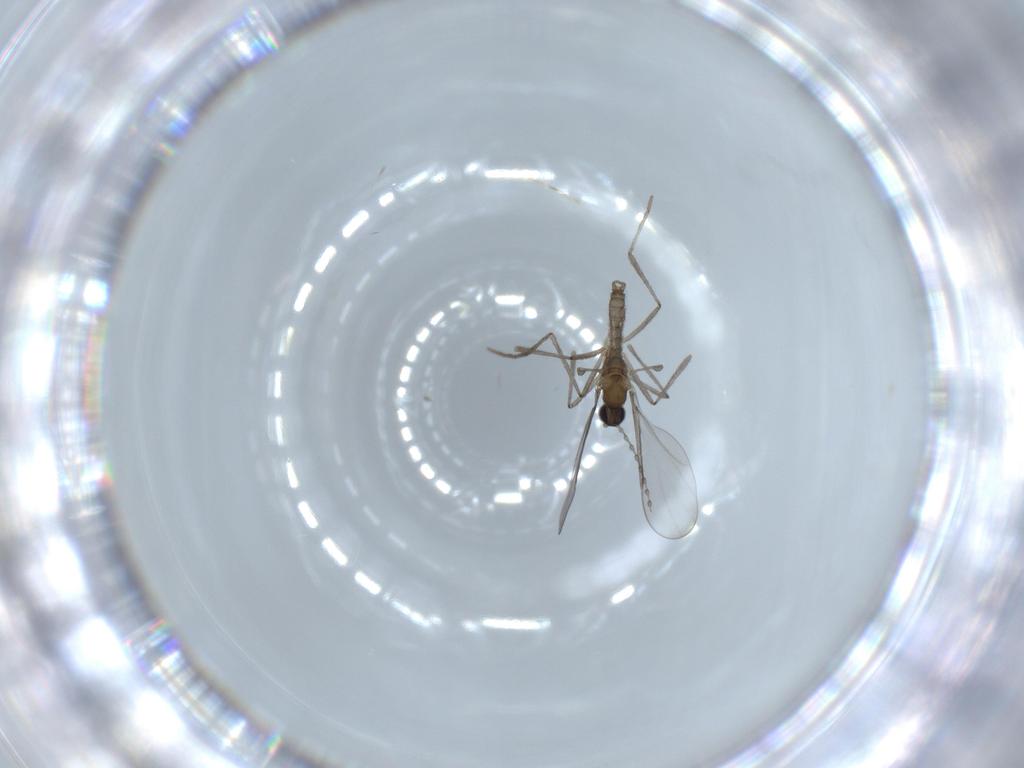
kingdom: Animalia
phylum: Arthropoda
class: Insecta
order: Diptera
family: Cecidomyiidae
